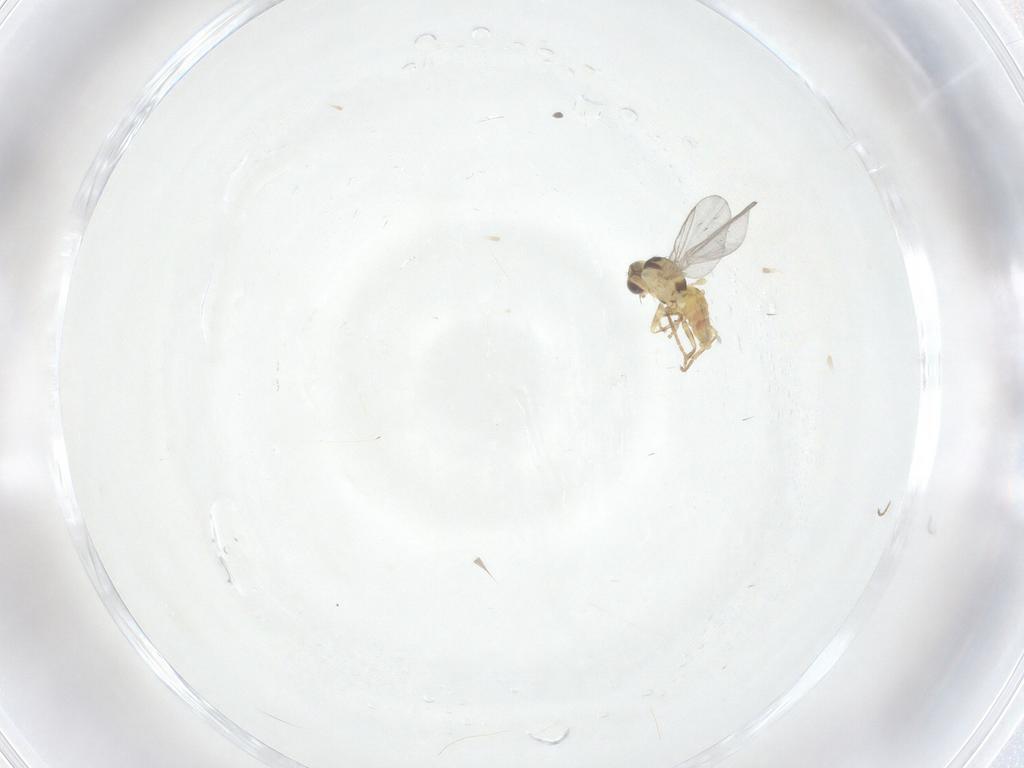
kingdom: Animalia
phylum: Arthropoda
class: Insecta
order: Diptera
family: Agromyzidae
